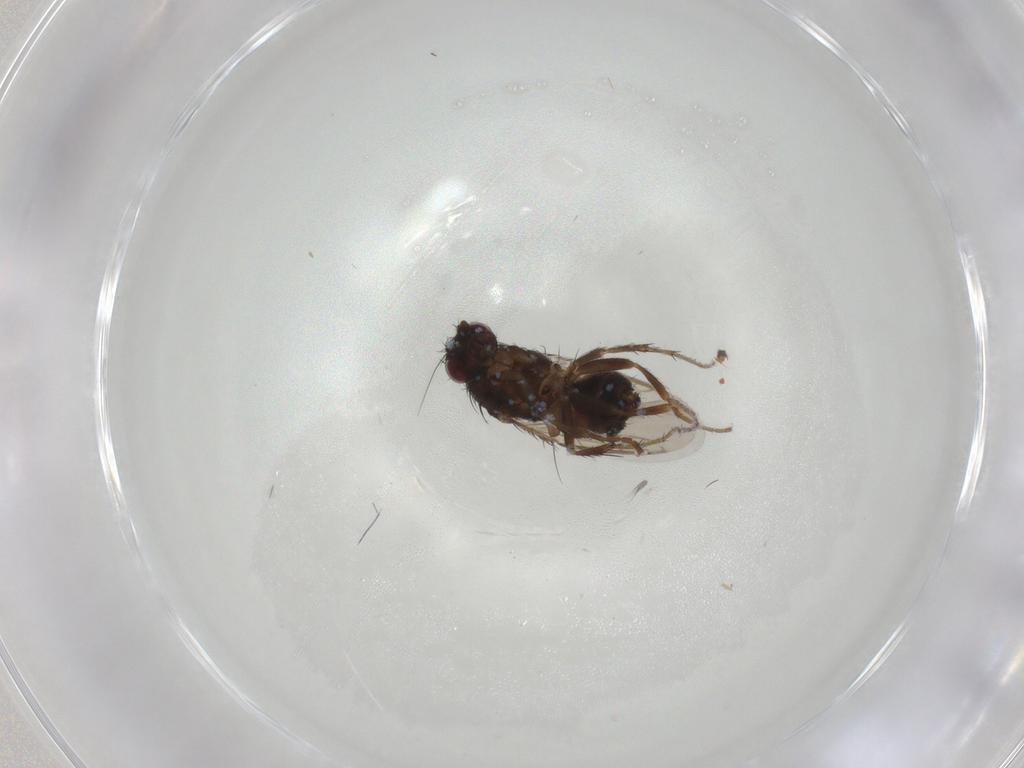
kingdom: Animalia
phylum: Arthropoda
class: Insecta
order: Diptera
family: Sphaeroceridae
